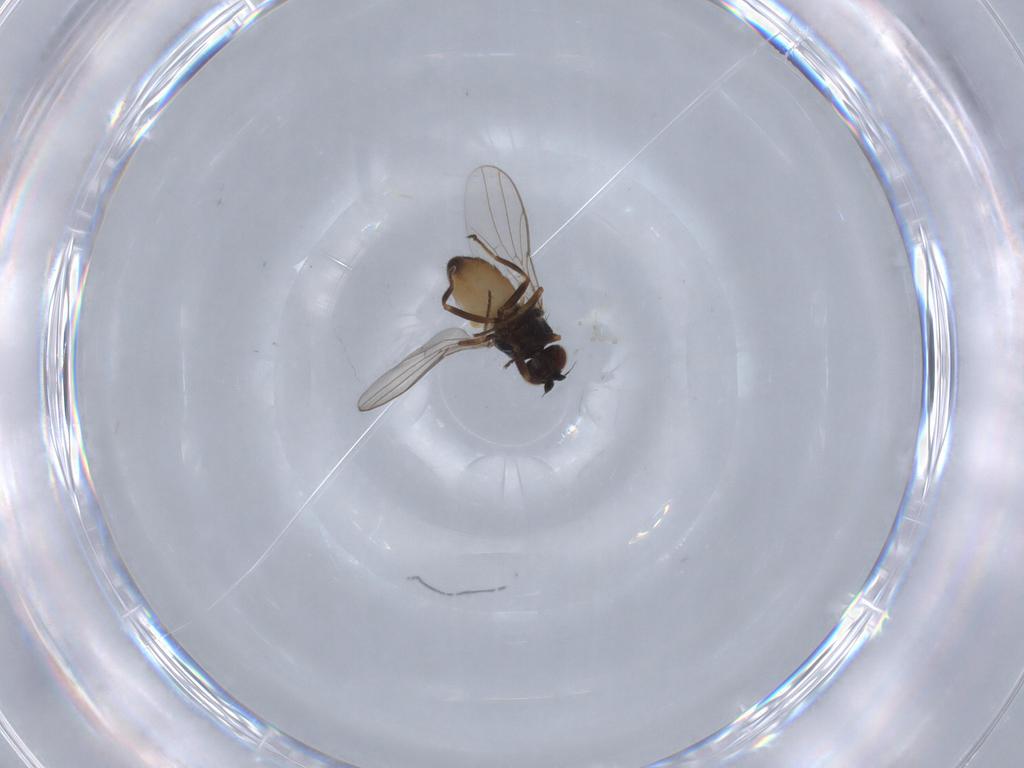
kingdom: Animalia
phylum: Arthropoda
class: Insecta
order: Diptera
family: Chloropidae
